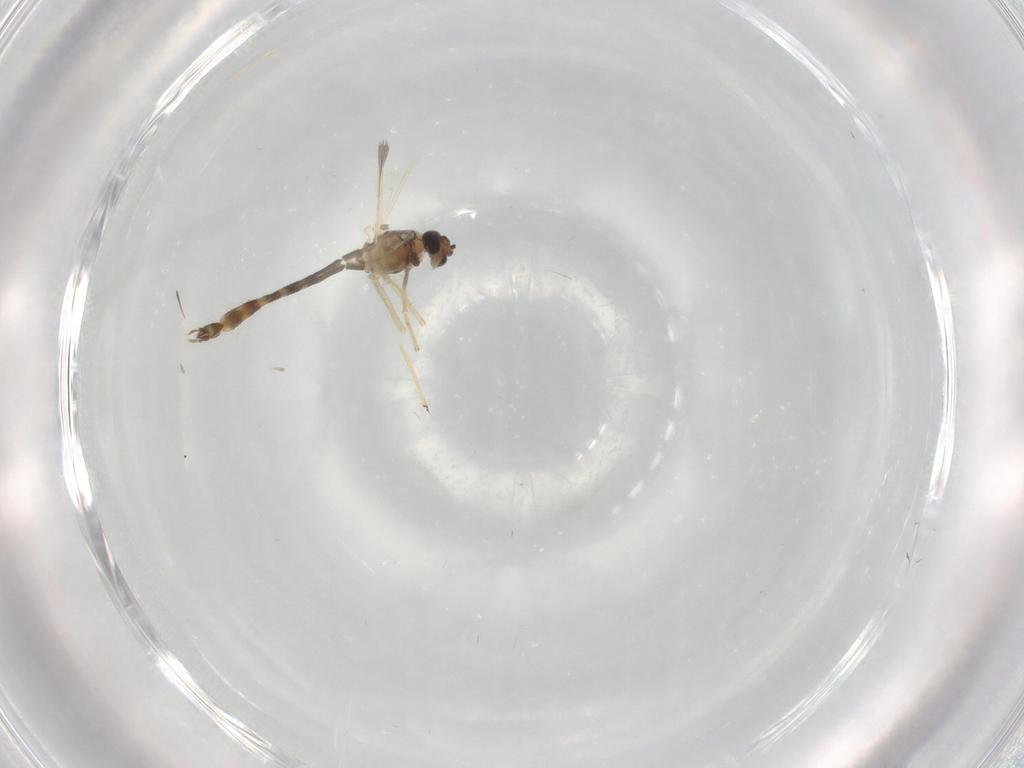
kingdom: Animalia
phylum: Arthropoda
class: Insecta
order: Diptera
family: Chironomidae
